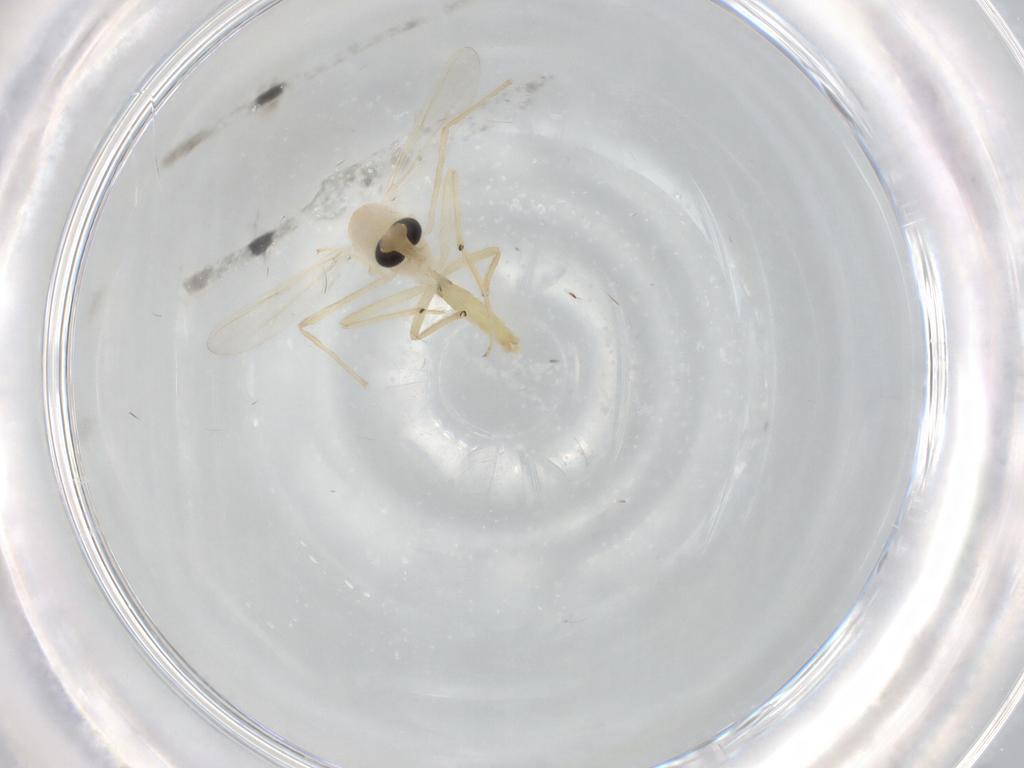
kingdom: Animalia
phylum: Arthropoda
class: Insecta
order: Diptera
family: Chironomidae
